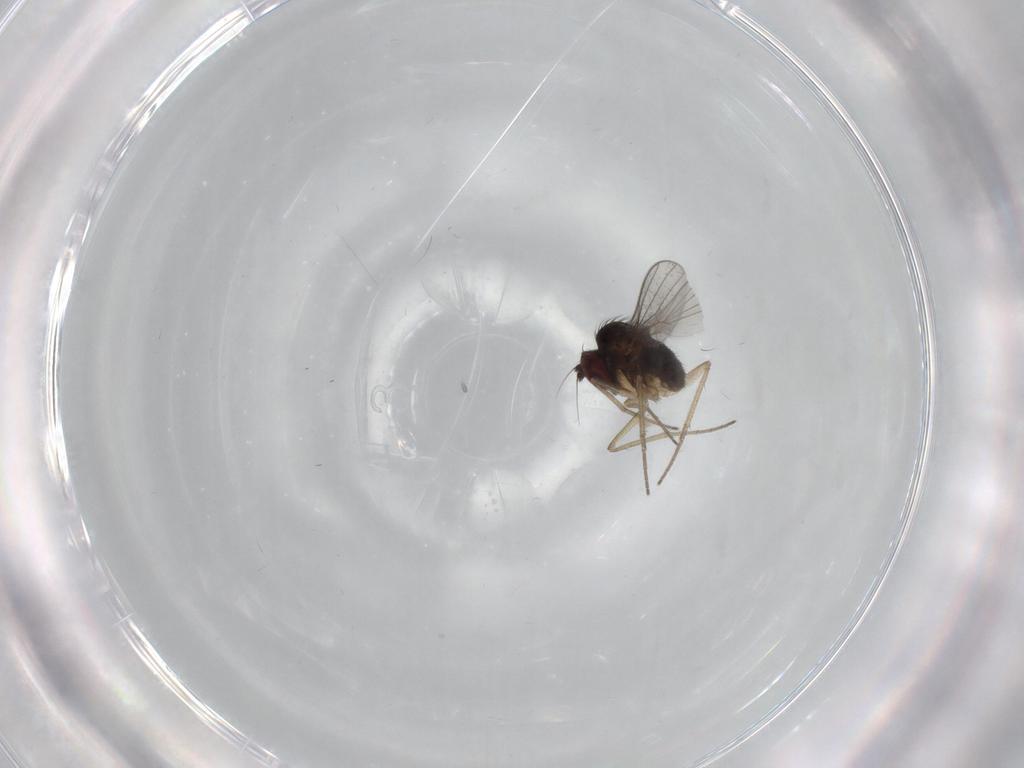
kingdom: Animalia
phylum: Arthropoda
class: Insecta
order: Diptera
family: Dolichopodidae
